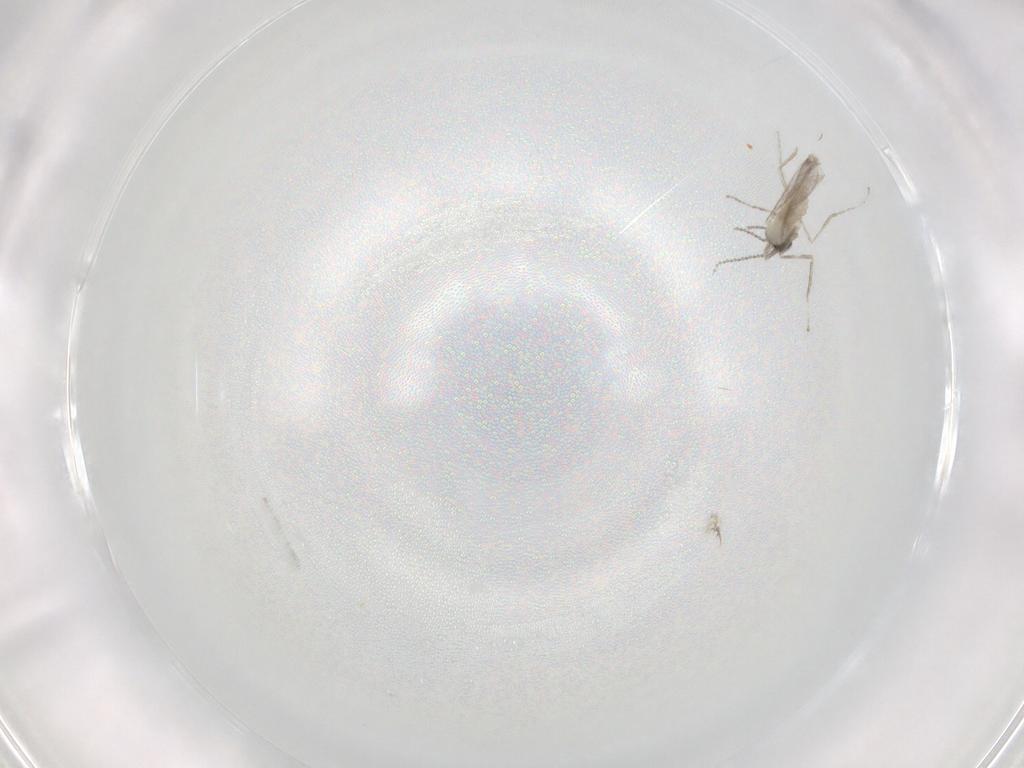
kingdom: Animalia
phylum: Arthropoda
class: Insecta
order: Diptera
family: Cecidomyiidae
